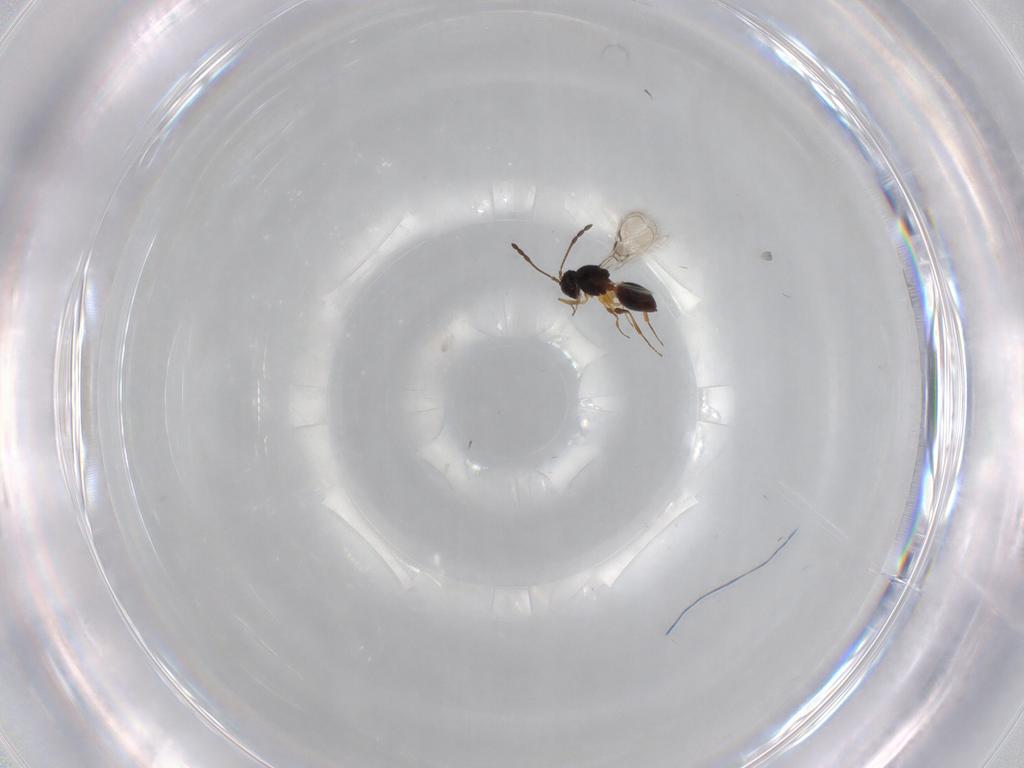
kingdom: Animalia
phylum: Arthropoda
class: Insecta
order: Hymenoptera
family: Figitidae
